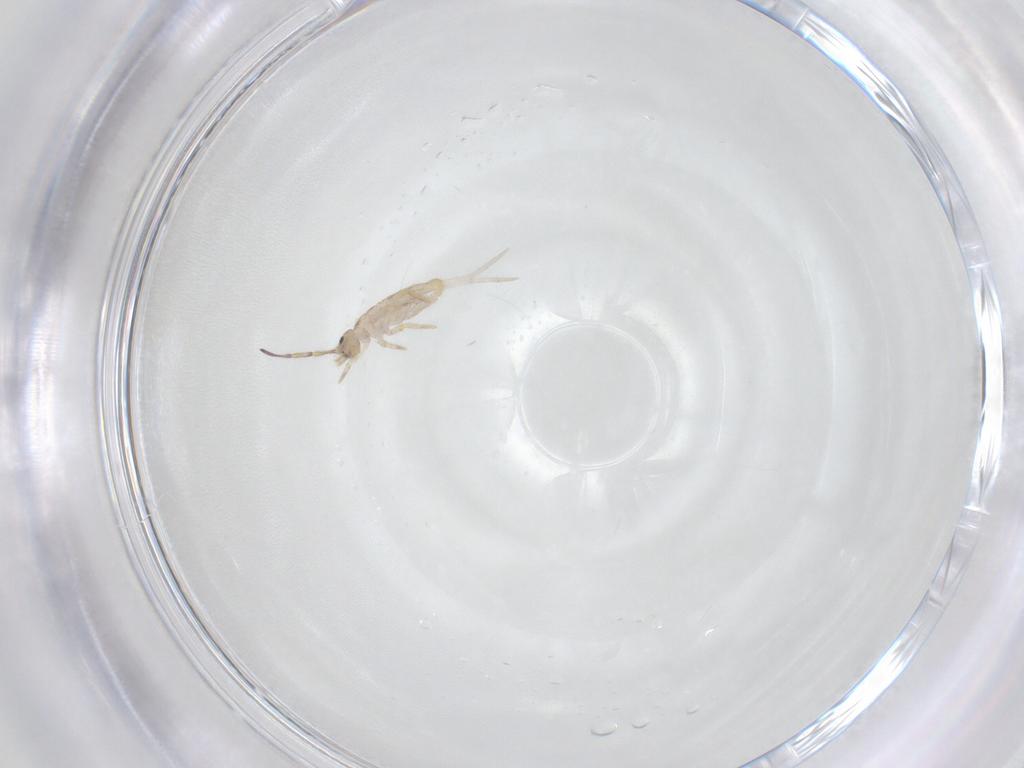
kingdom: Animalia
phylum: Arthropoda
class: Collembola
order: Entomobryomorpha
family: Entomobryidae
